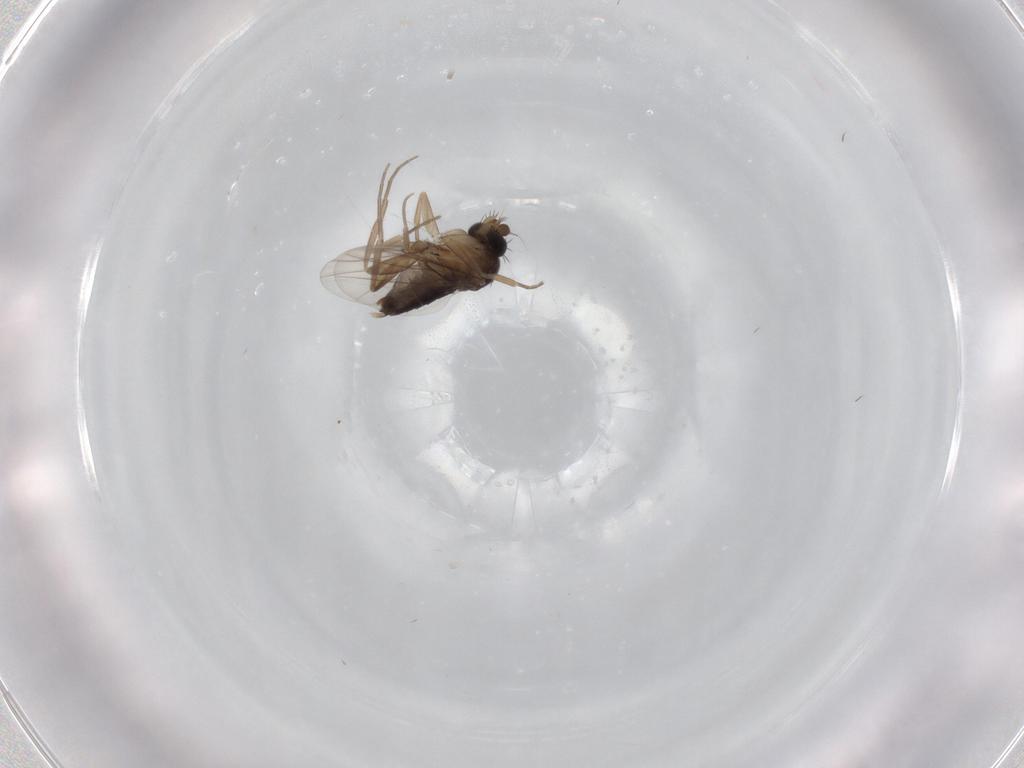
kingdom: Animalia
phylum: Arthropoda
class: Insecta
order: Diptera
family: Phoridae
